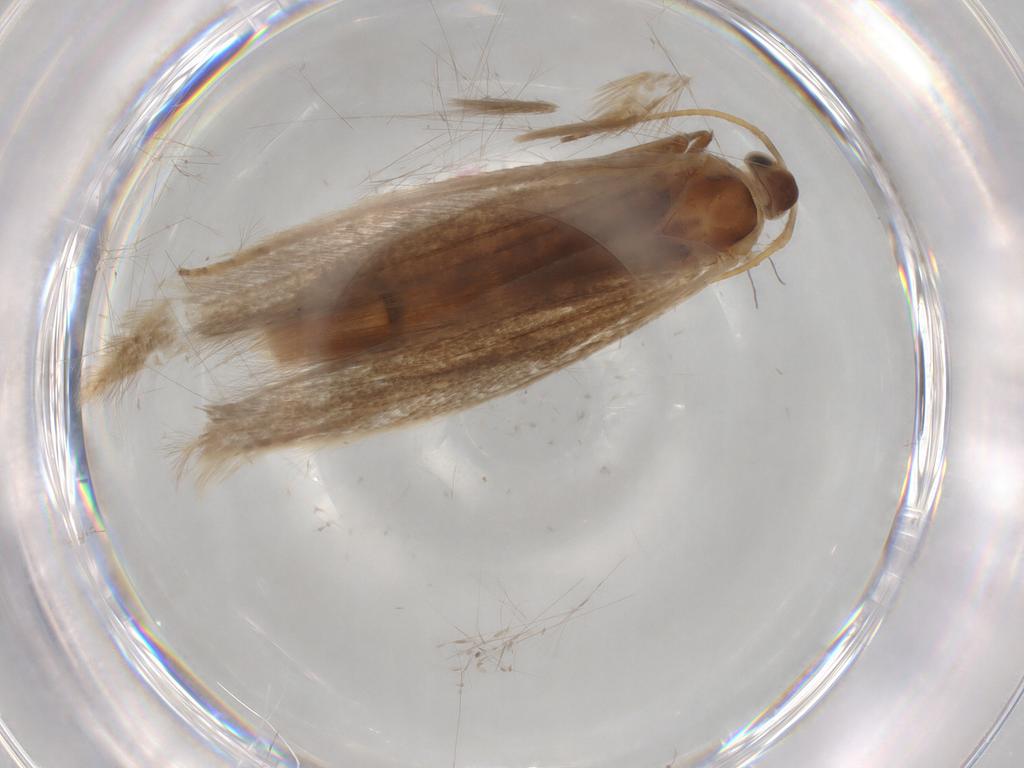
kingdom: Animalia
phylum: Arthropoda
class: Insecta
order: Lepidoptera
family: Coleophoridae
